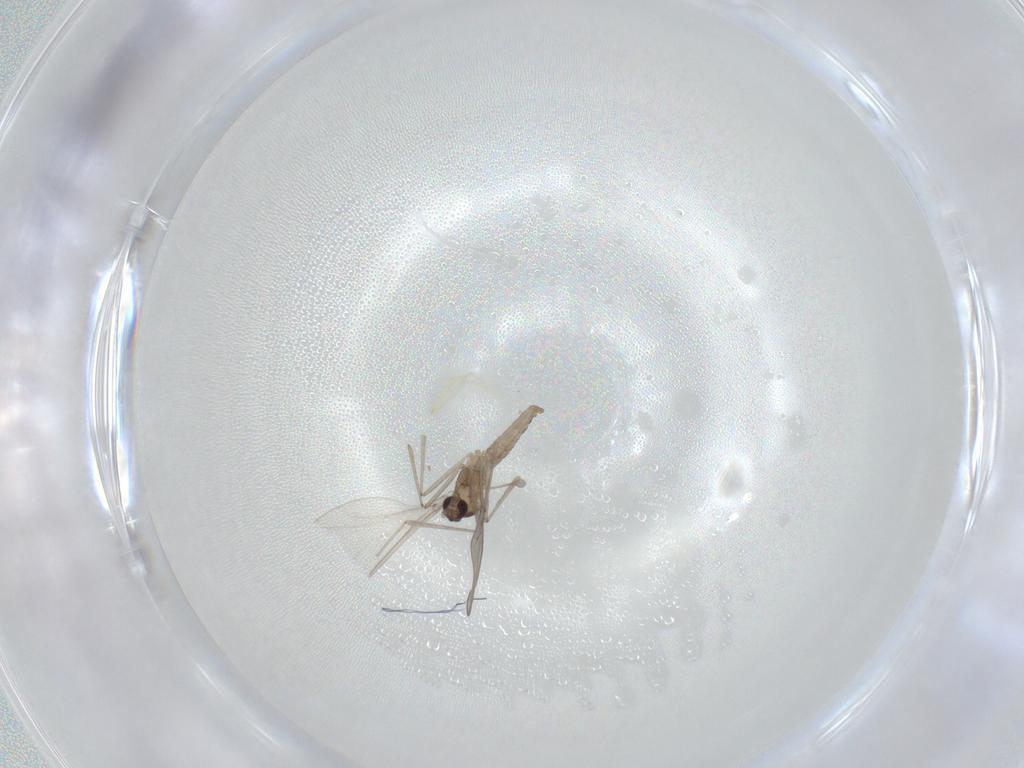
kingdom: Animalia
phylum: Arthropoda
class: Insecta
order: Diptera
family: Cecidomyiidae
